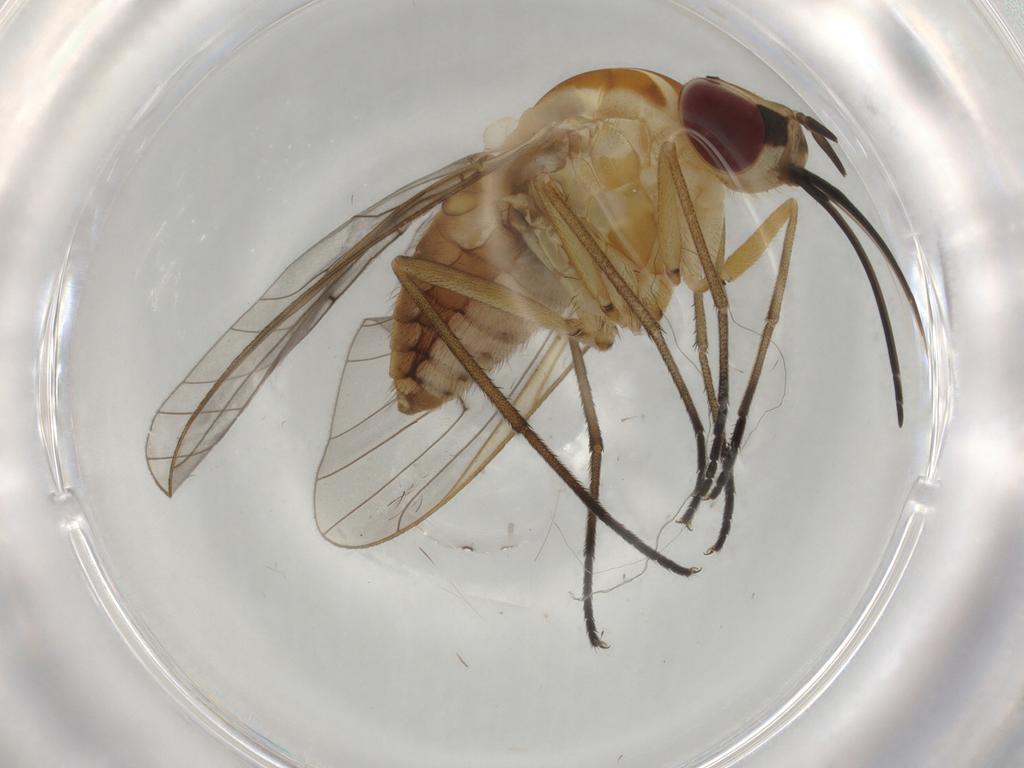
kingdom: Animalia
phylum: Arthropoda
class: Insecta
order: Diptera
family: Bombyliidae
